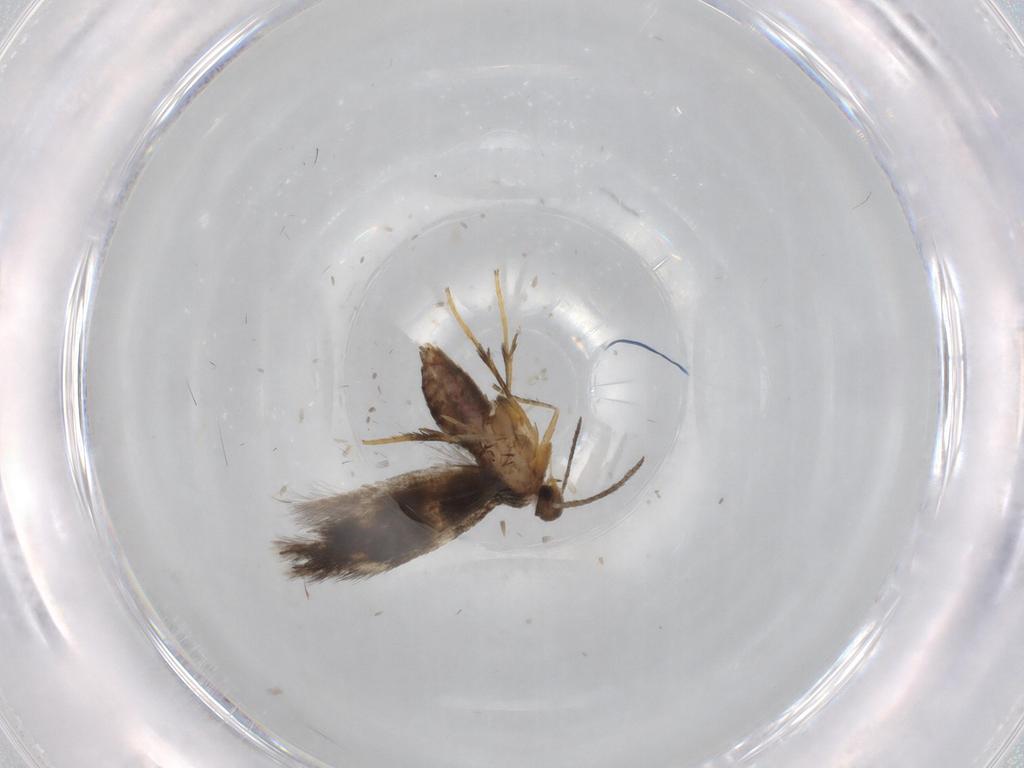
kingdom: Animalia
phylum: Arthropoda
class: Insecta
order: Lepidoptera
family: Heliozelidae
